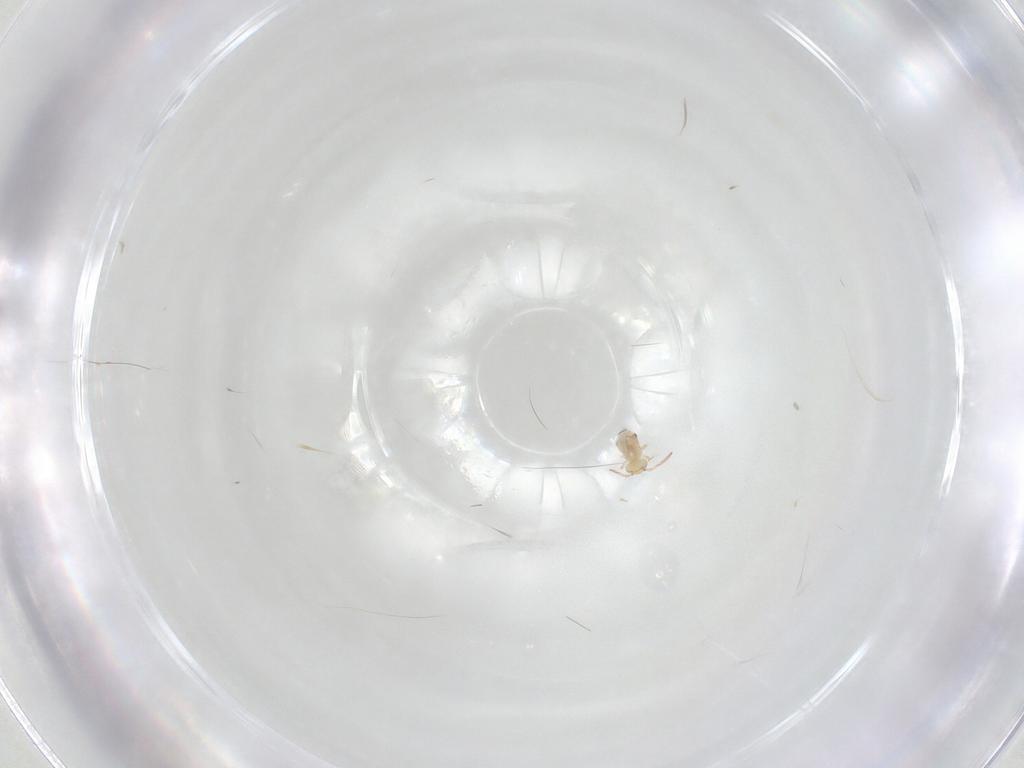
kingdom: Animalia
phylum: Arthropoda
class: Collembola
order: Symphypleona
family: Bourletiellidae
